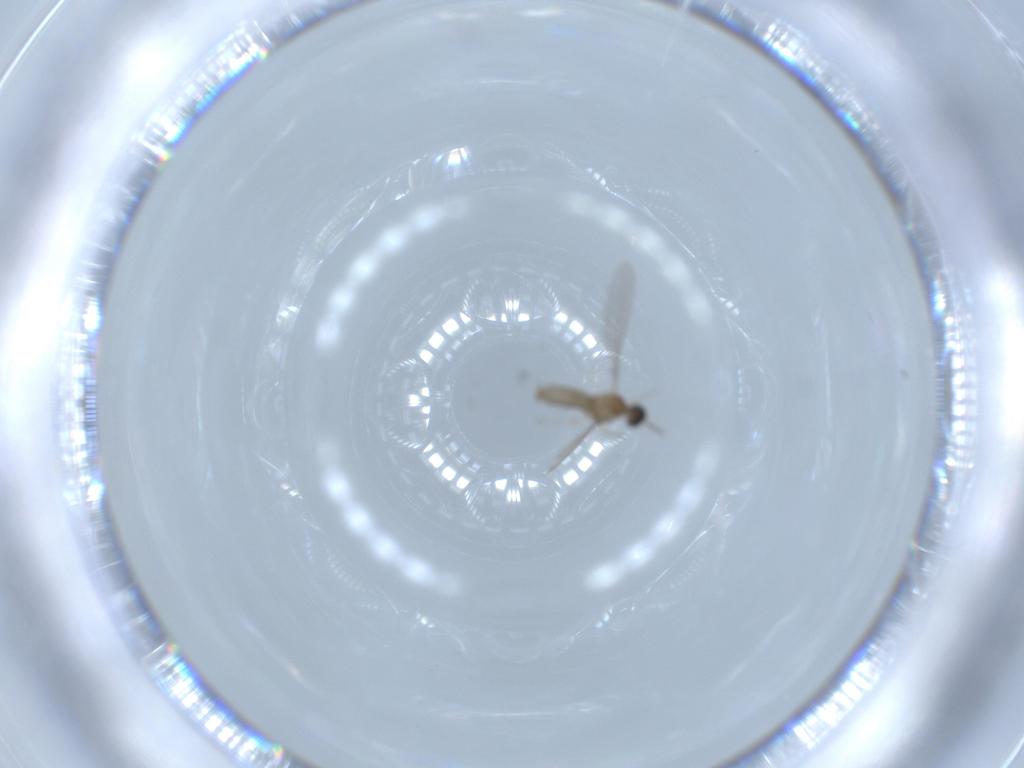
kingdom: Animalia
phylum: Arthropoda
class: Insecta
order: Diptera
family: Cecidomyiidae
